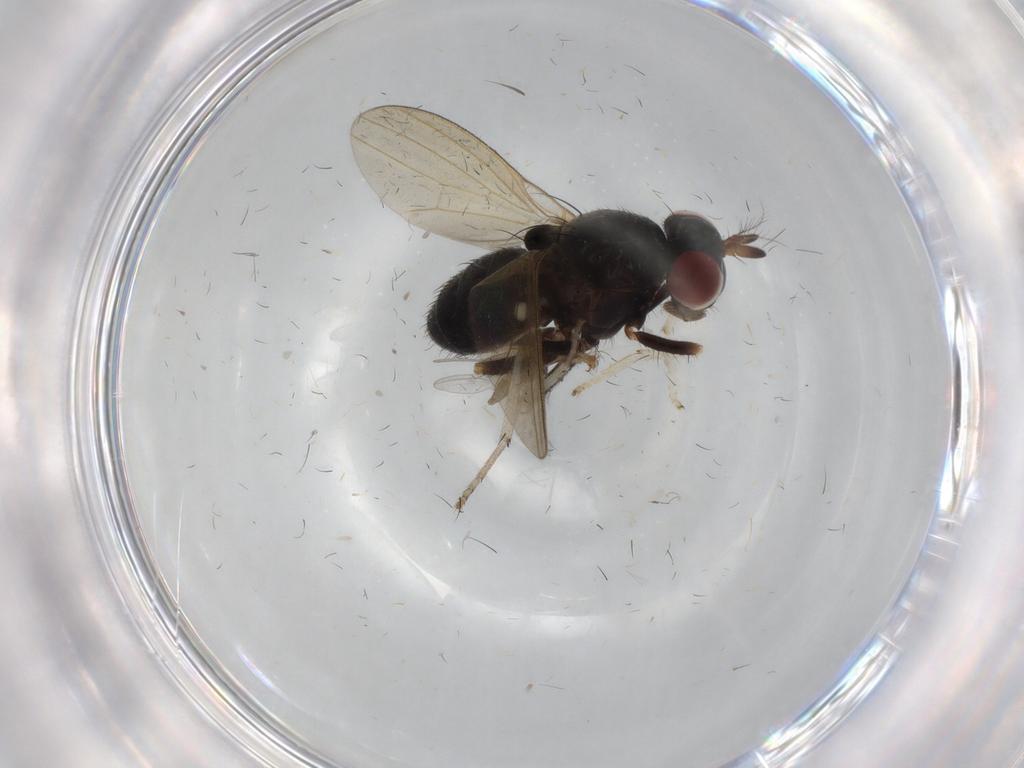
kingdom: Animalia
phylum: Arthropoda
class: Insecta
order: Diptera
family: Lauxaniidae
